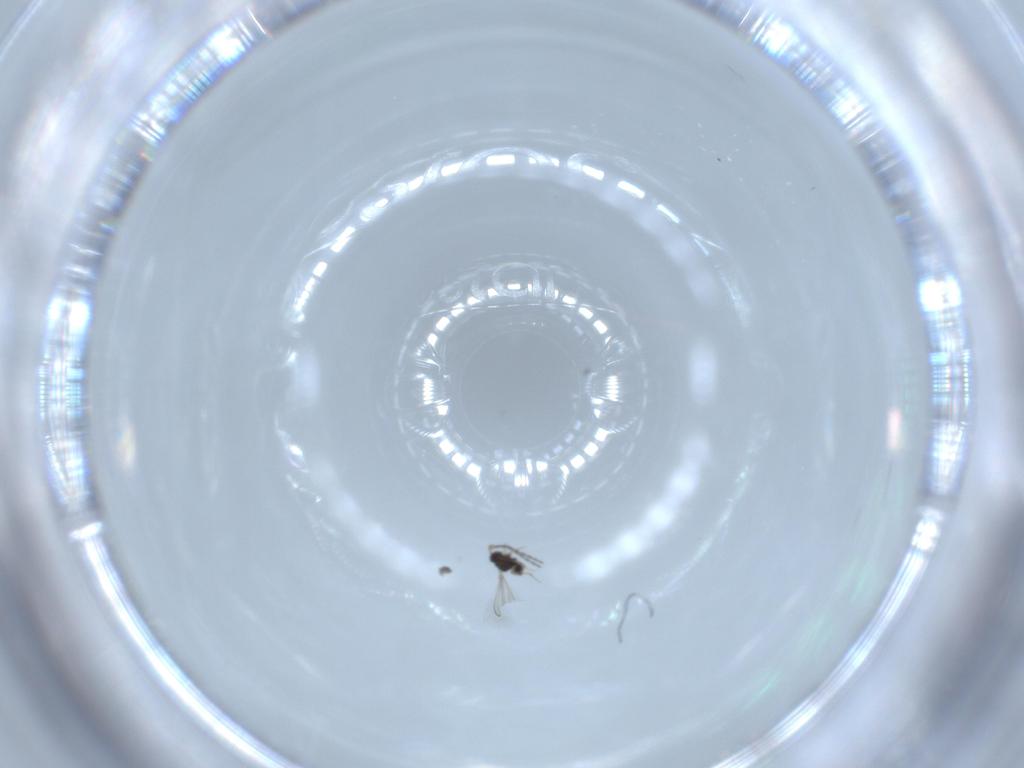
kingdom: Animalia
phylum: Arthropoda
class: Insecta
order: Hymenoptera
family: Mymaridae
